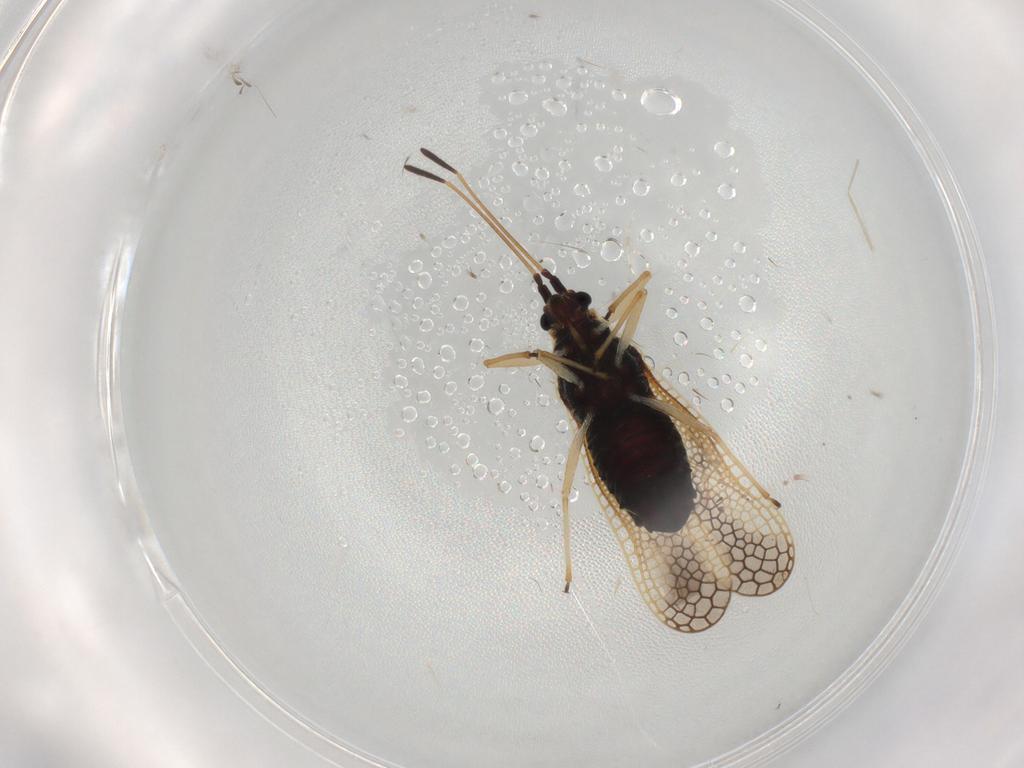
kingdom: Animalia
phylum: Arthropoda
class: Insecta
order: Hemiptera
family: Tingidae
